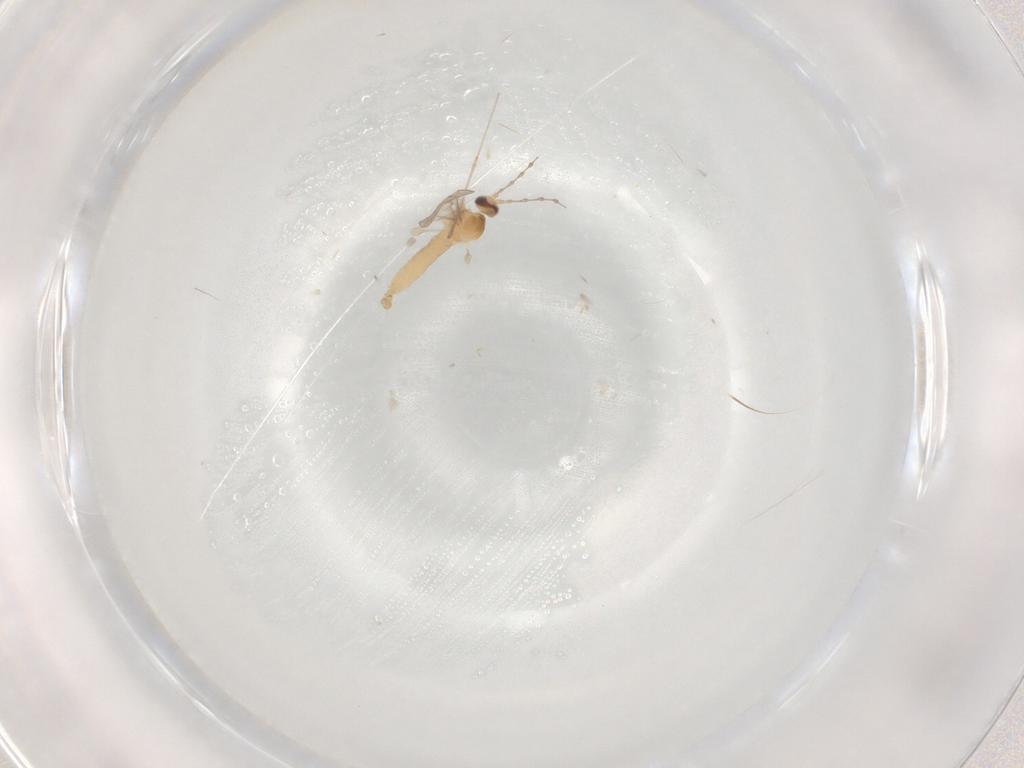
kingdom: Animalia
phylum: Arthropoda
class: Insecta
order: Diptera
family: Cecidomyiidae
